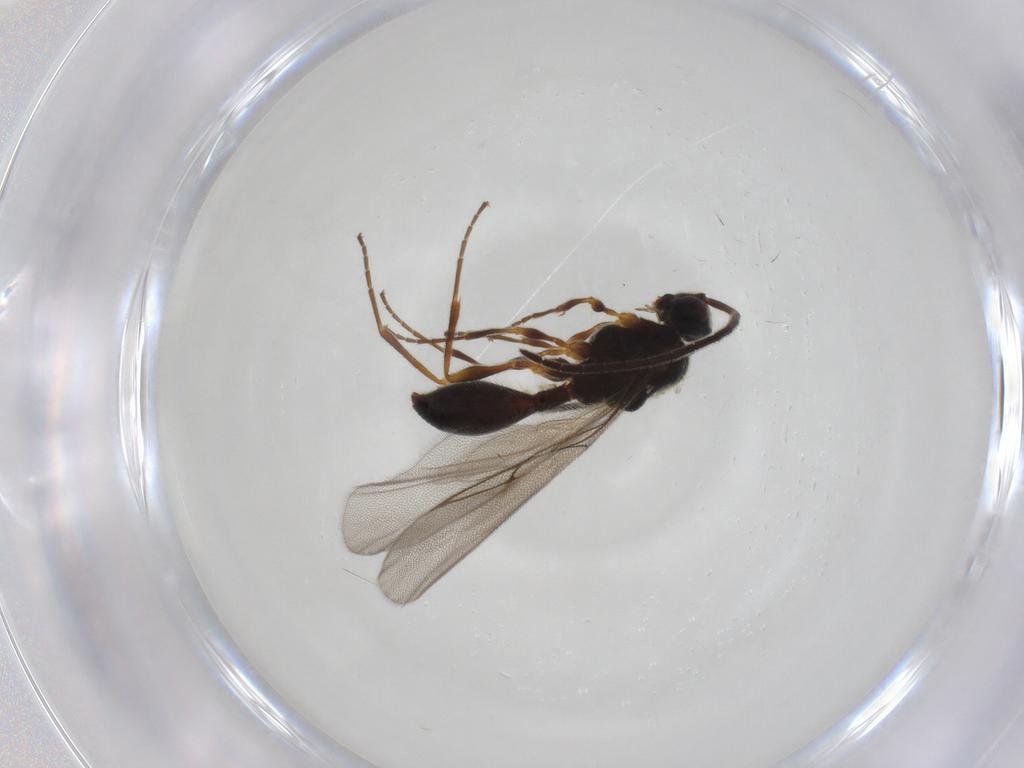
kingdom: Animalia
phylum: Arthropoda
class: Insecta
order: Hymenoptera
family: Diapriidae
